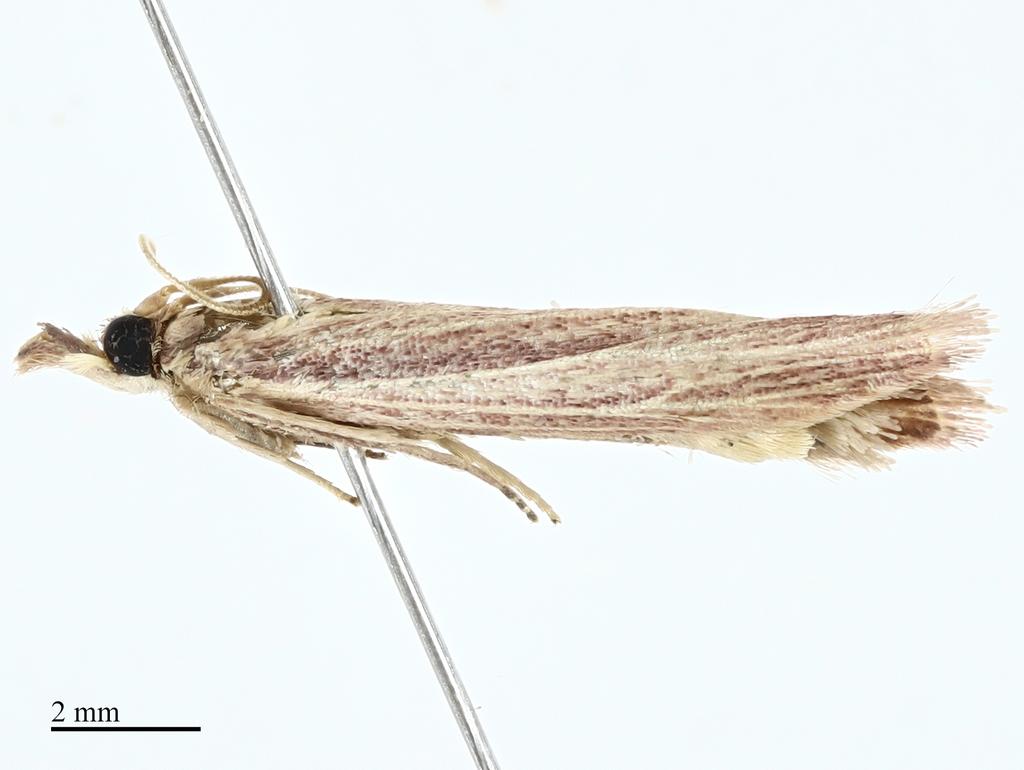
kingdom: Animalia
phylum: Arthropoda
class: Insecta
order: Lepidoptera
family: Pyralidae
